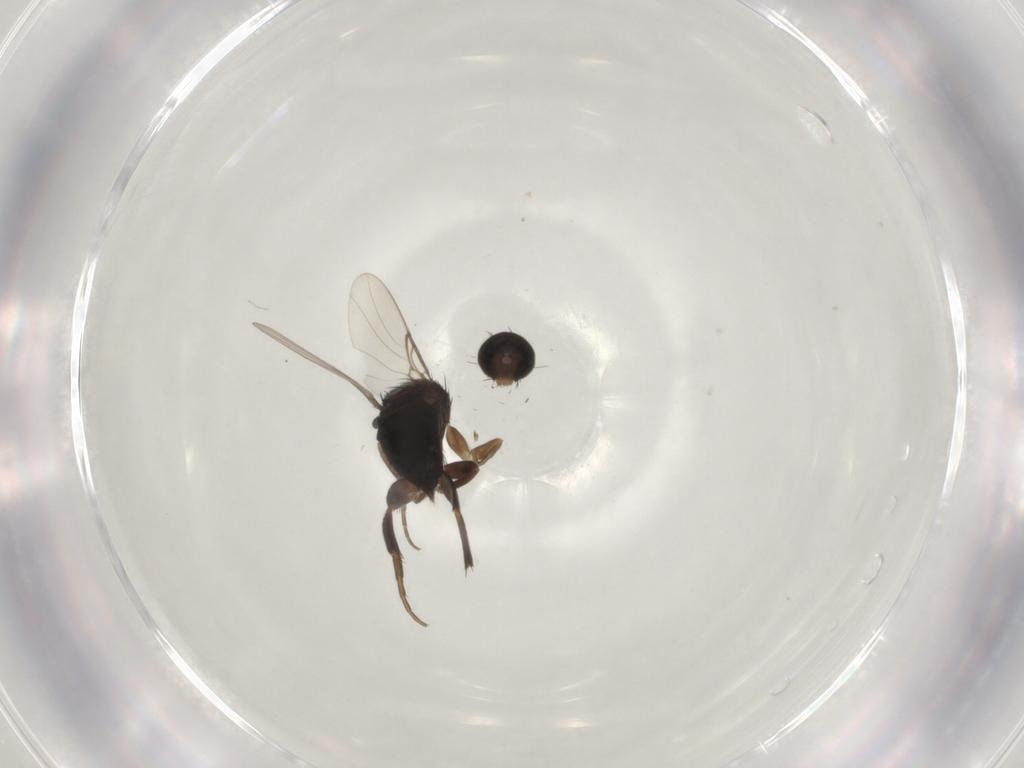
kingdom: Animalia
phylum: Arthropoda
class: Insecta
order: Diptera
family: Phoridae
